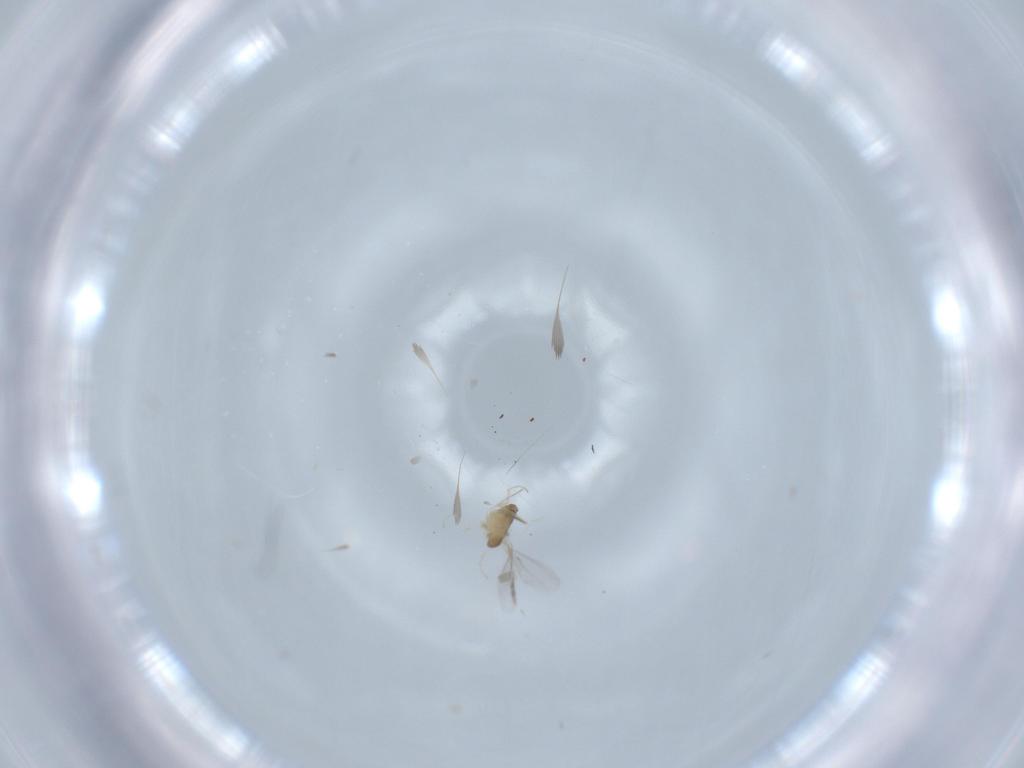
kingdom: Animalia
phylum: Arthropoda
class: Insecta
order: Diptera
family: Cecidomyiidae
